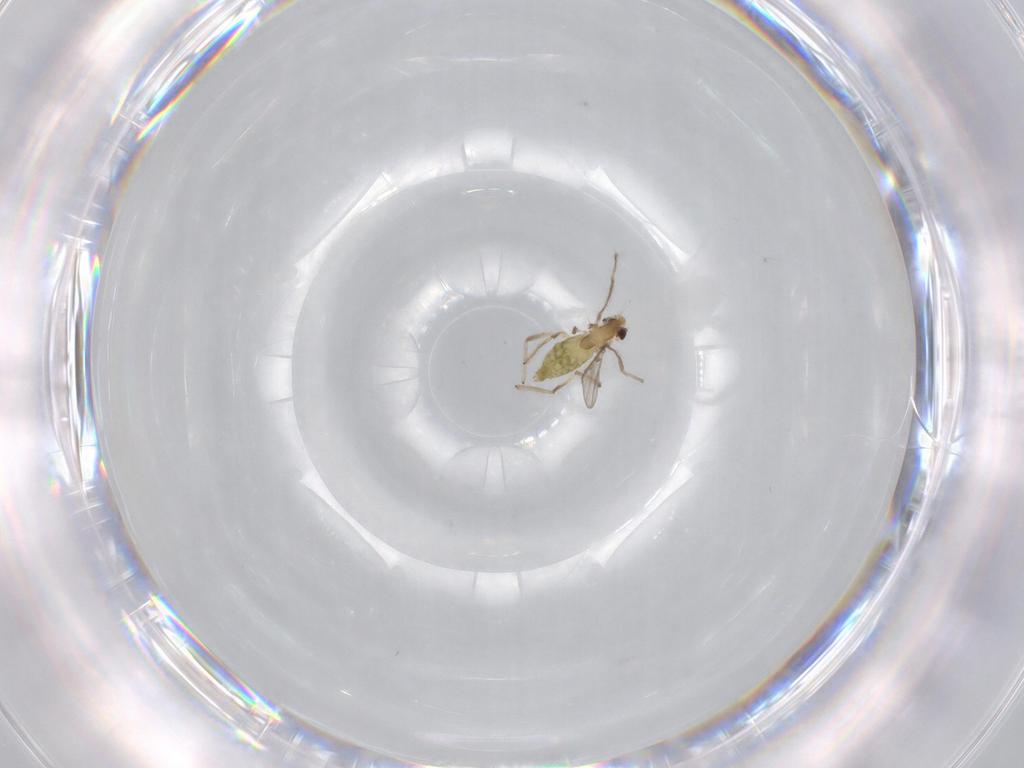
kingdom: Animalia
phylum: Arthropoda
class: Insecta
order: Diptera
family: Chironomidae
